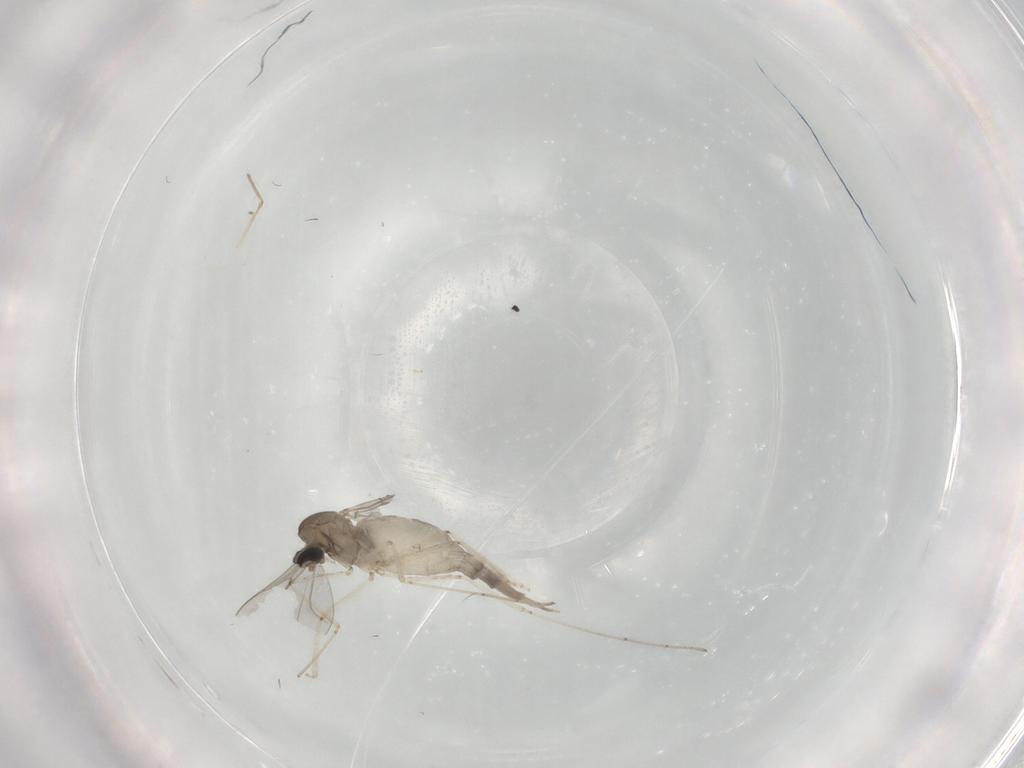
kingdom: Animalia
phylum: Arthropoda
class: Insecta
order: Diptera
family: Cecidomyiidae
